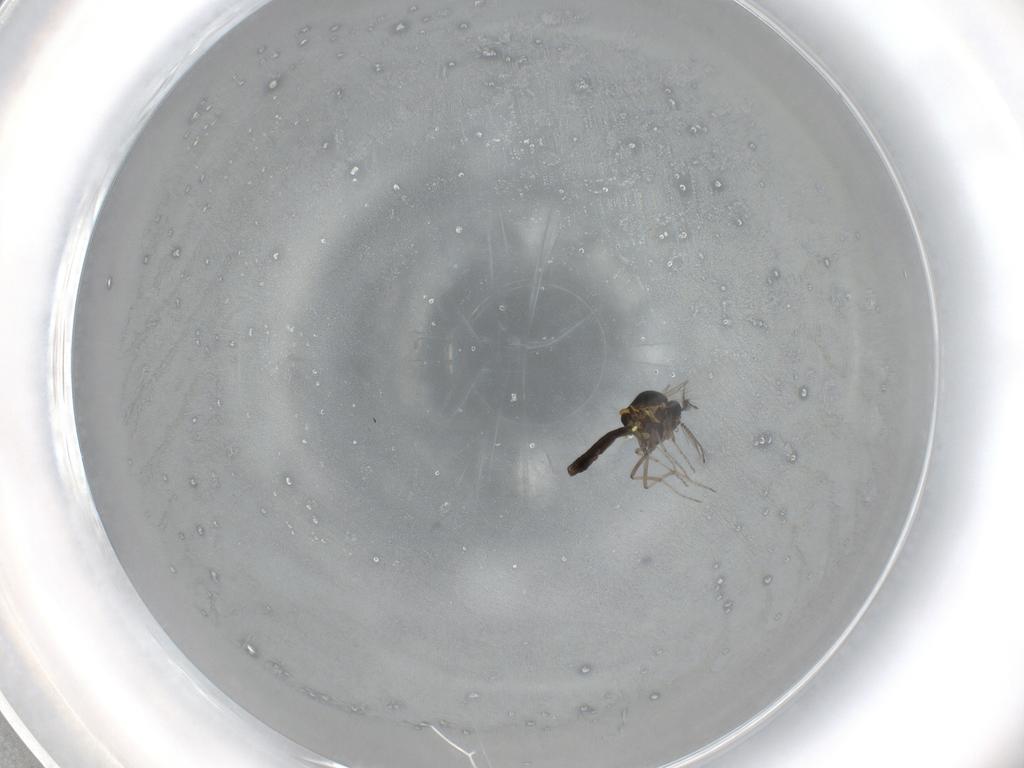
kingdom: Animalia
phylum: Arthropoda
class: Insecta
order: Diptera
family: Ceratopogonidae
